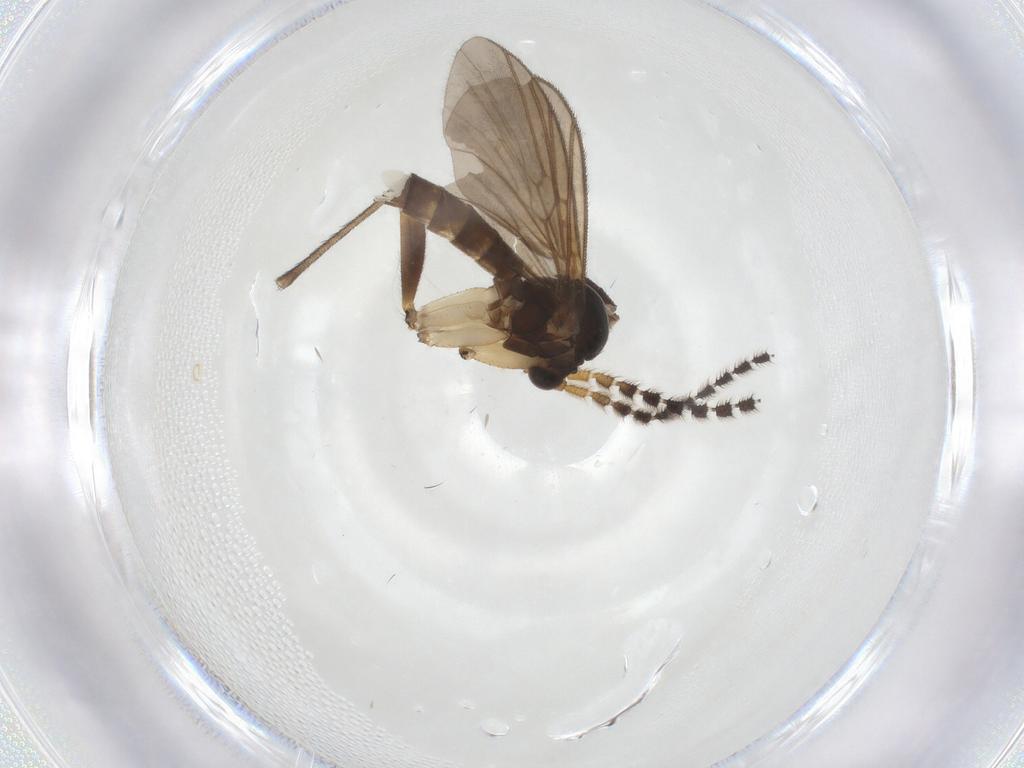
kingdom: Animalia
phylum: Arthropoda
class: Insecta
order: Diptera
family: Mycetophilidae
